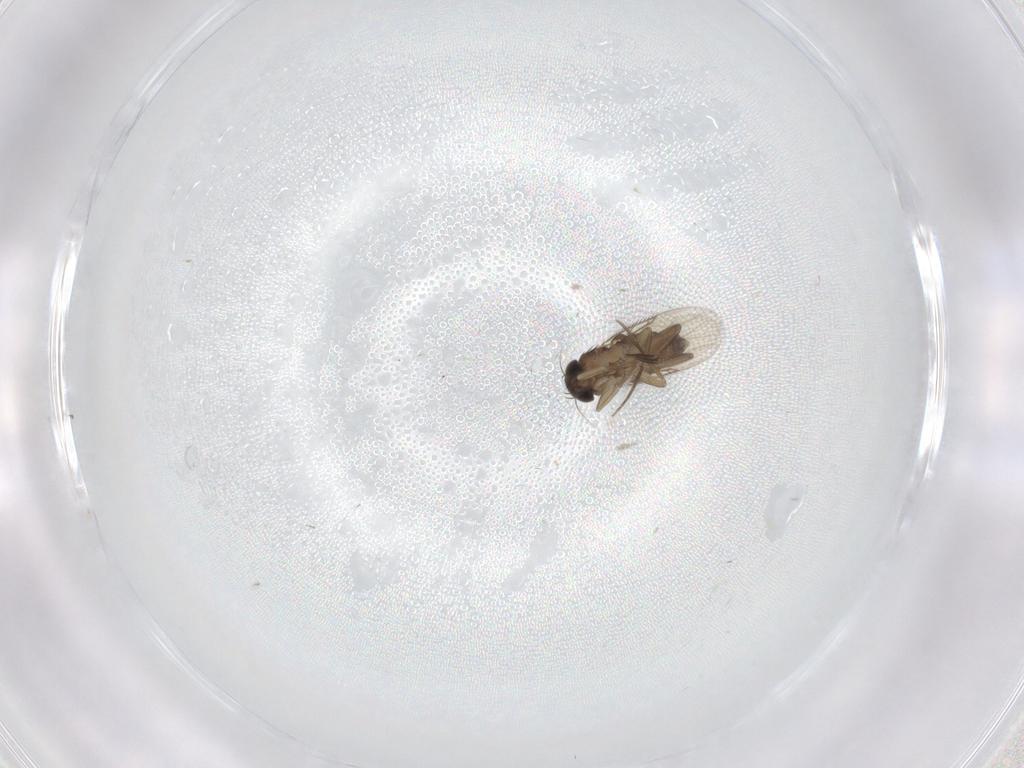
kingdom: Animalia
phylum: Arthropoda
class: Insecta
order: Diptera
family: Phoridae
